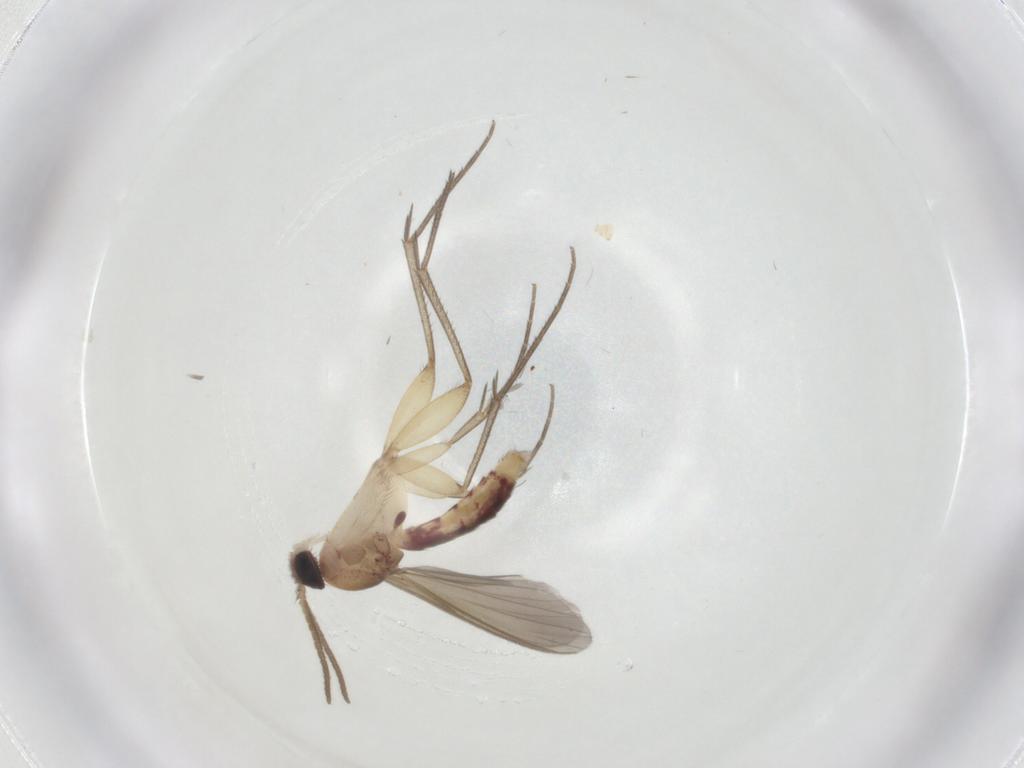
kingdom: Animalia
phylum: Arthropoda
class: Insecta
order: Diptera
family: Mycetophilidae
